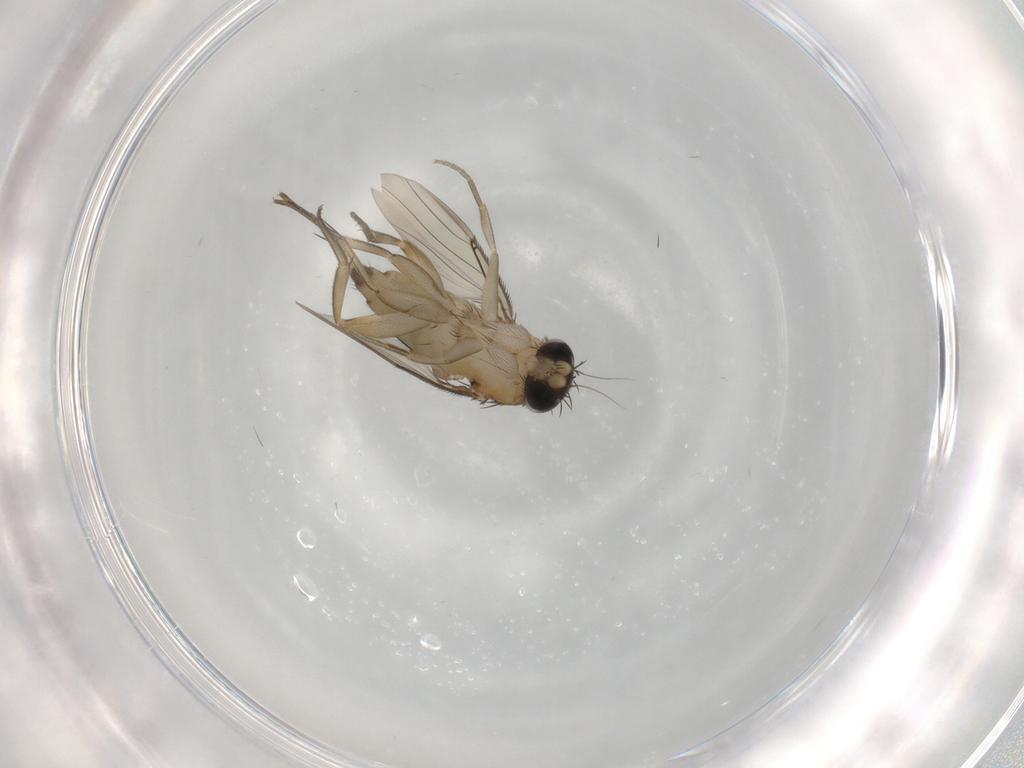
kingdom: Animalia
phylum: Arthropoda
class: Insecta
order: Diptera
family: Phoridae
